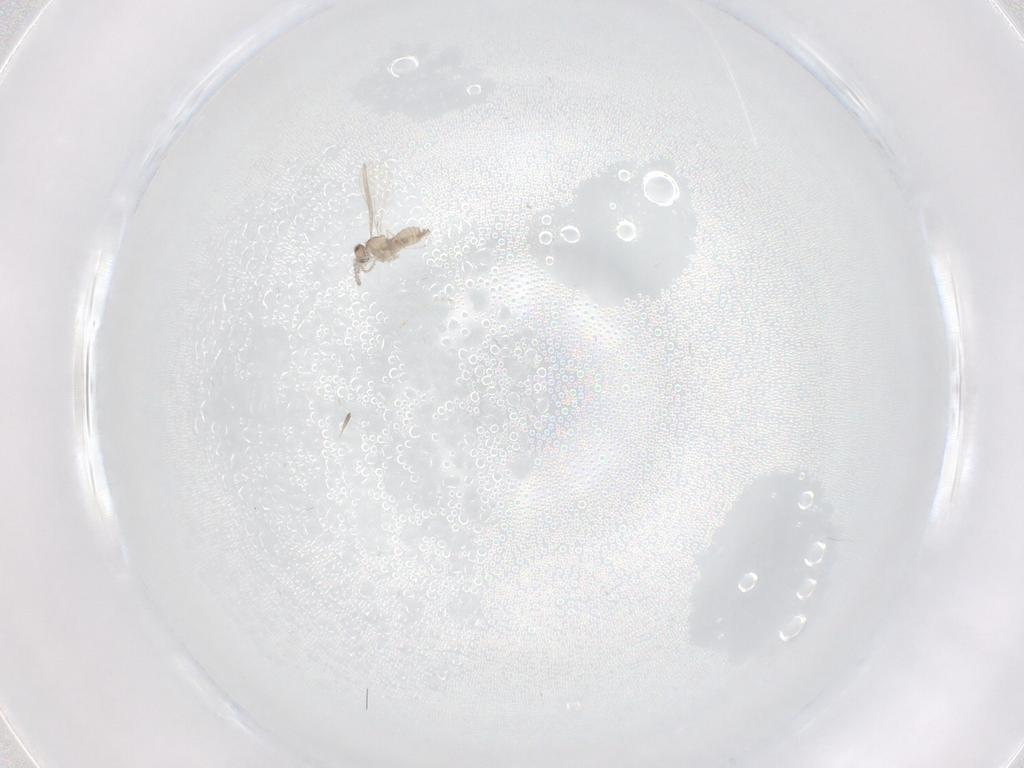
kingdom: Animalia
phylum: Arthropoda
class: Insecta
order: Diptera
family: Cecidomyiidae
